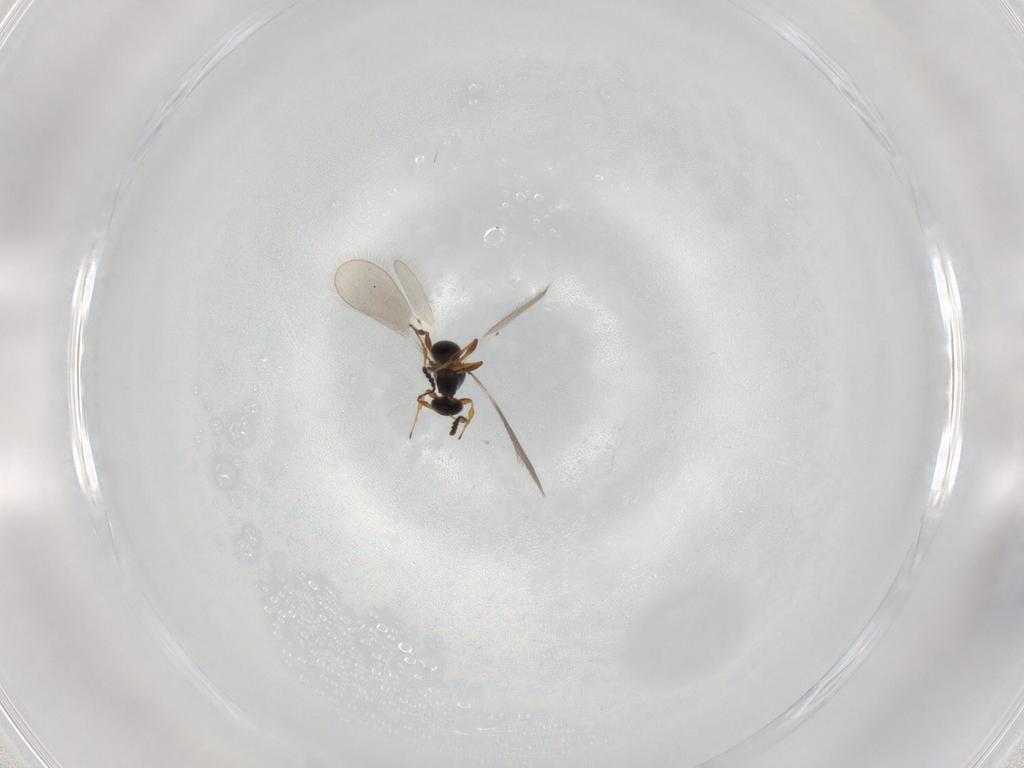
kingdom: Animalia
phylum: Arthropoda
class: Insecta
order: Hymenoptera
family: Platygastridae
